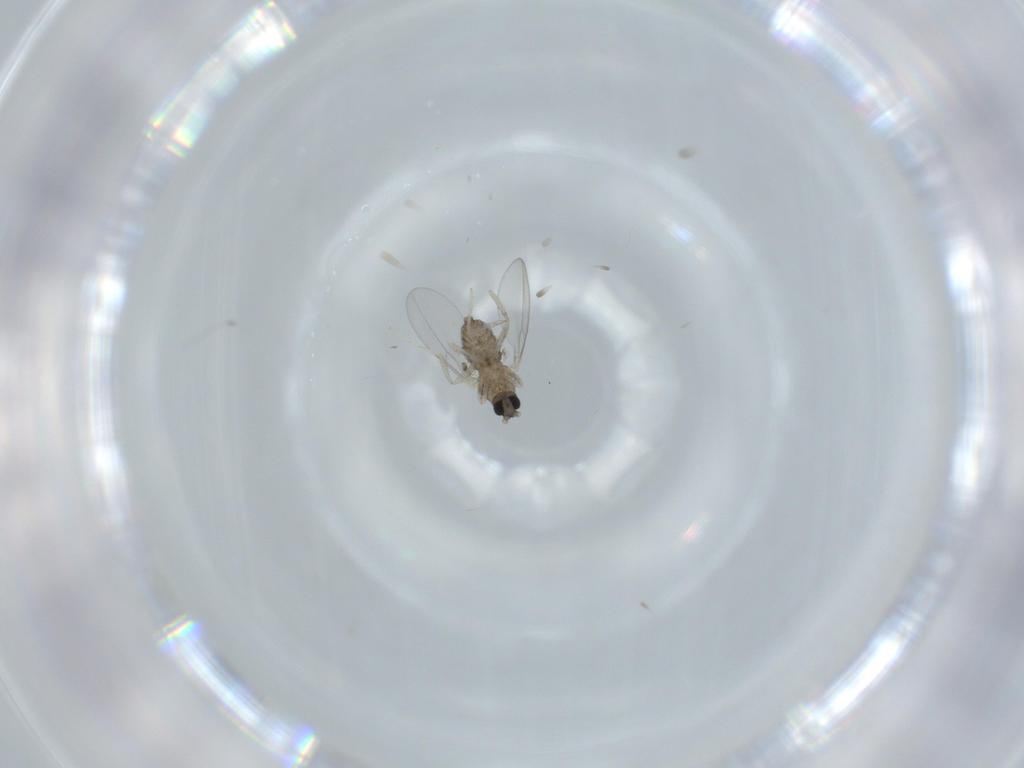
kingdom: Animalia
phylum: Arthropoda
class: Insecta
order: Diptera
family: Cecidomyiidae
